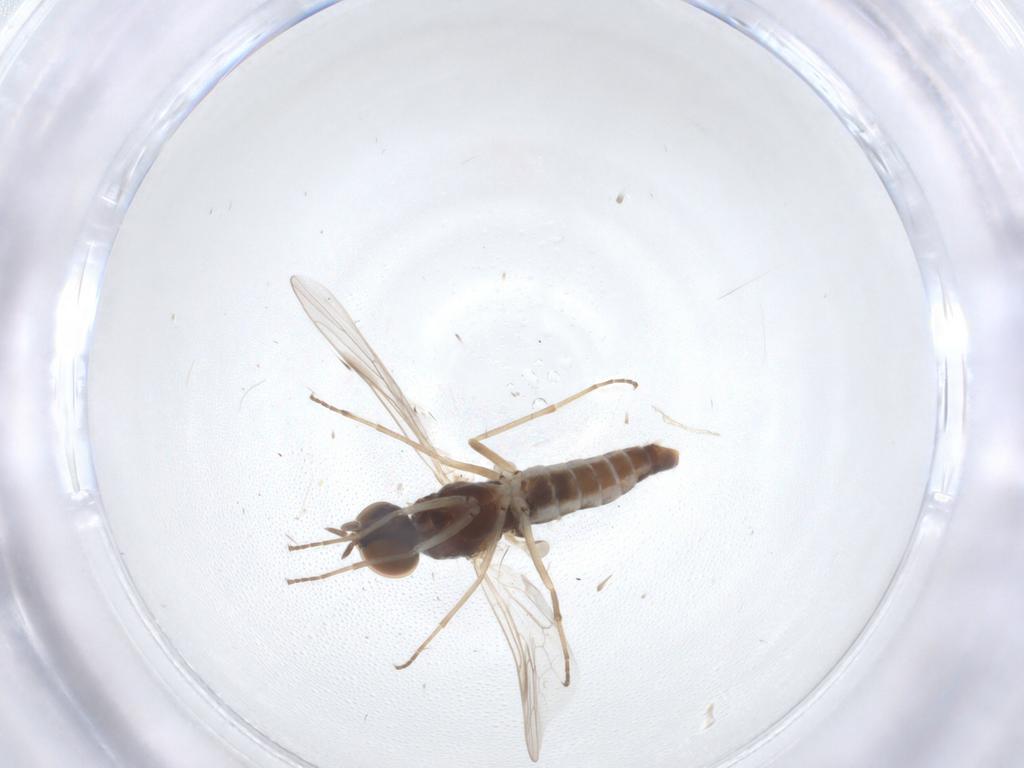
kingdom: Animalia
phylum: Arthropoda
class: Insecta
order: Diptera
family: Scenopinidae
